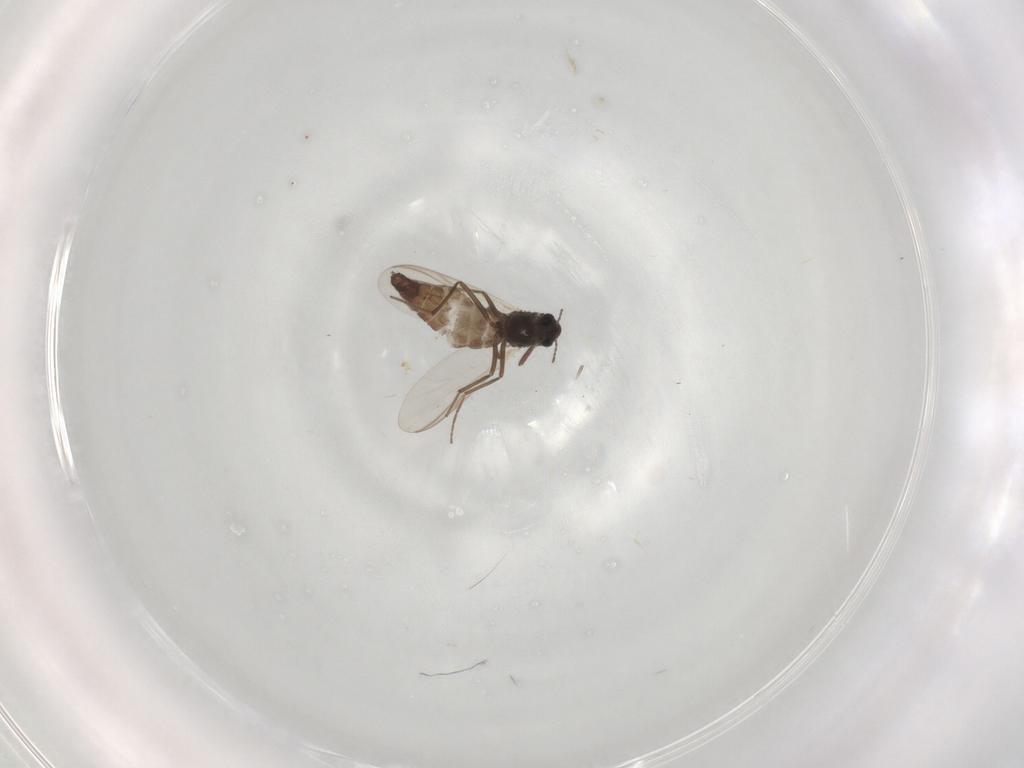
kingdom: Animalia
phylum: Arthropoda
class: Insecta
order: Diptera
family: Chironomidae
